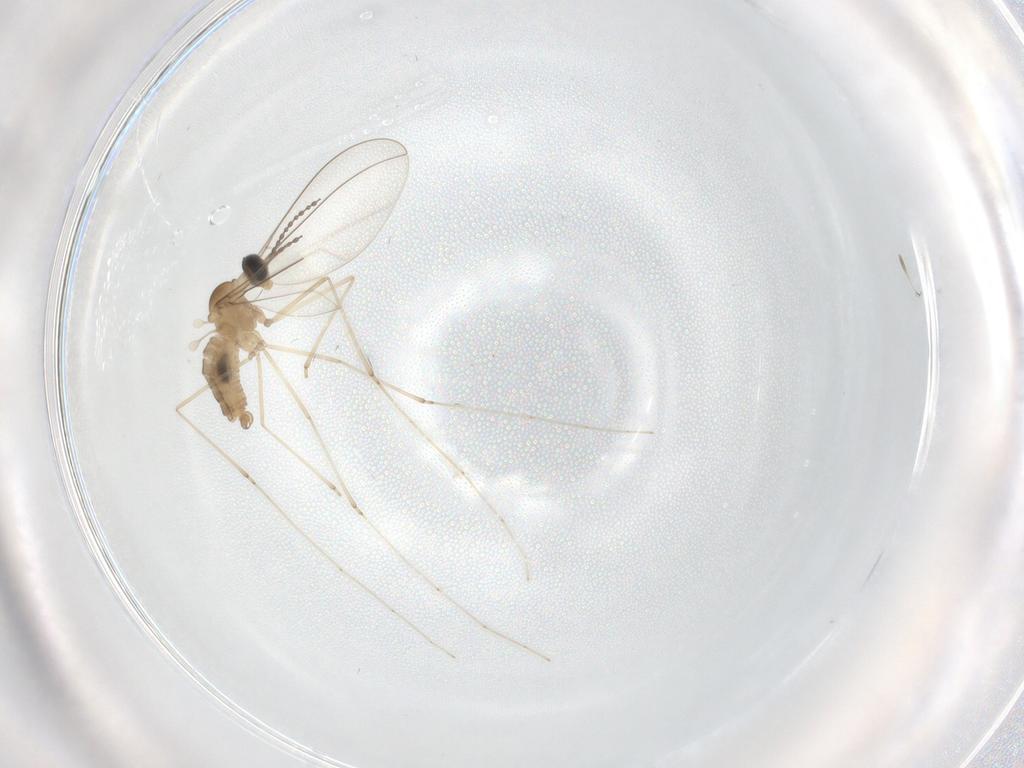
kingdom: Animalia
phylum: Arthropoda
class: Insecta
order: Diptera
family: Cecidomyiidae
